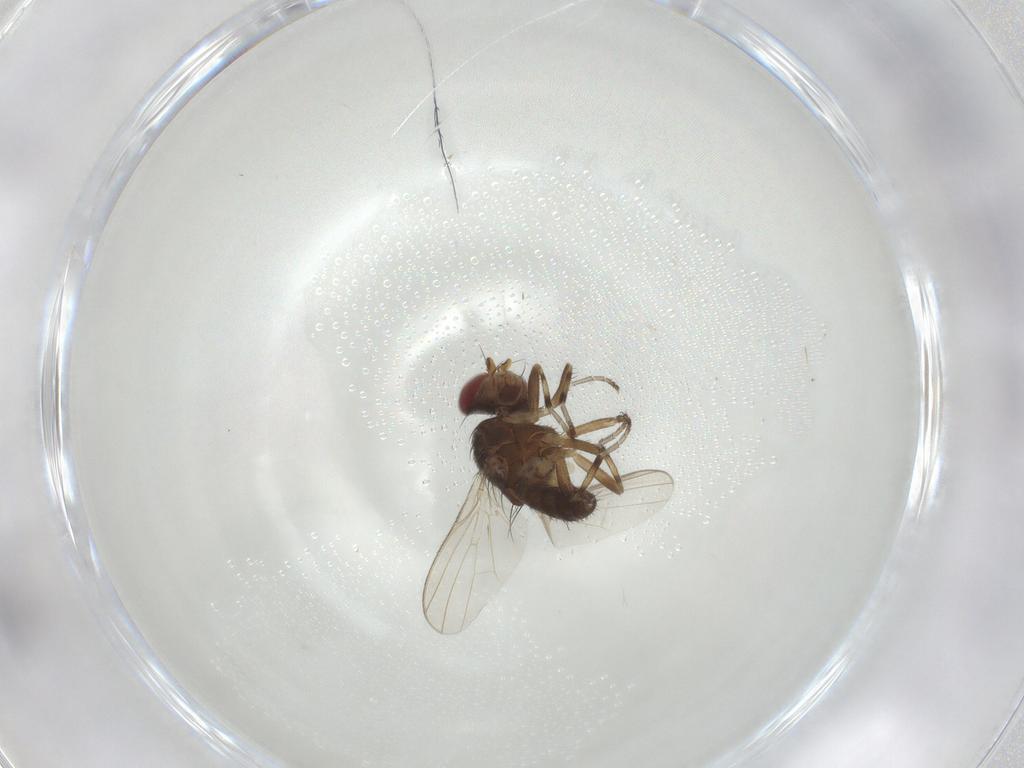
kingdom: Animalia
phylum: Arthropoda
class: Insecta
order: Diptera
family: Heleomyzidae
